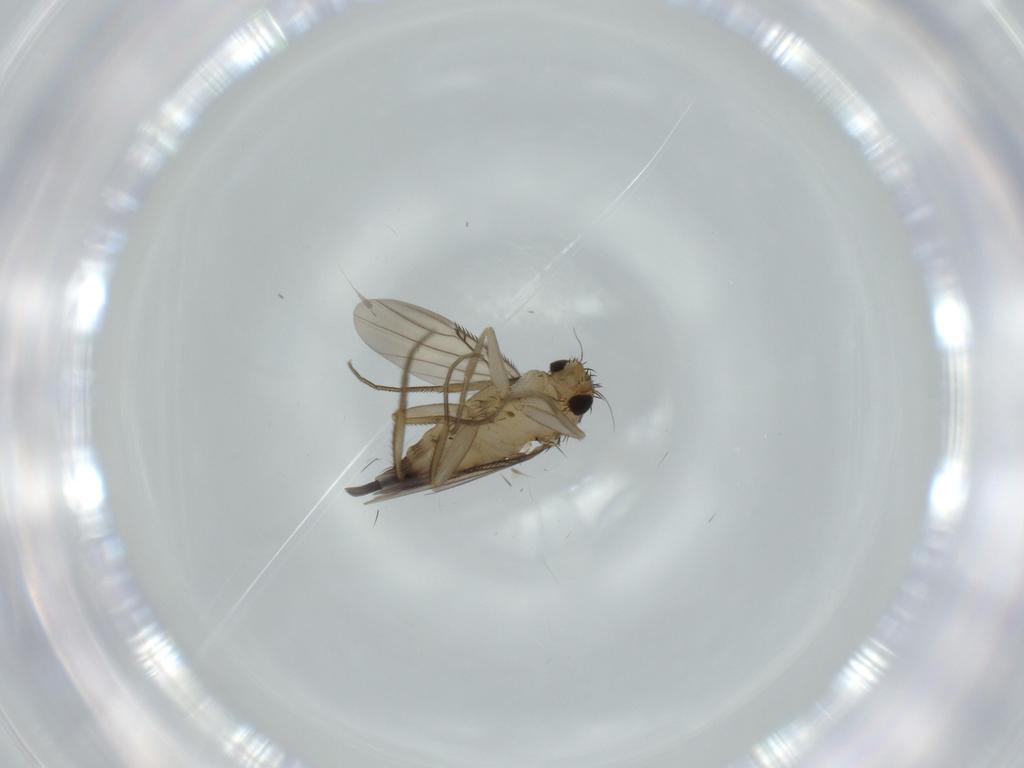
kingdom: Animalia
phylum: Arthropoda
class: Insecta
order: Diptera
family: Phoridae
